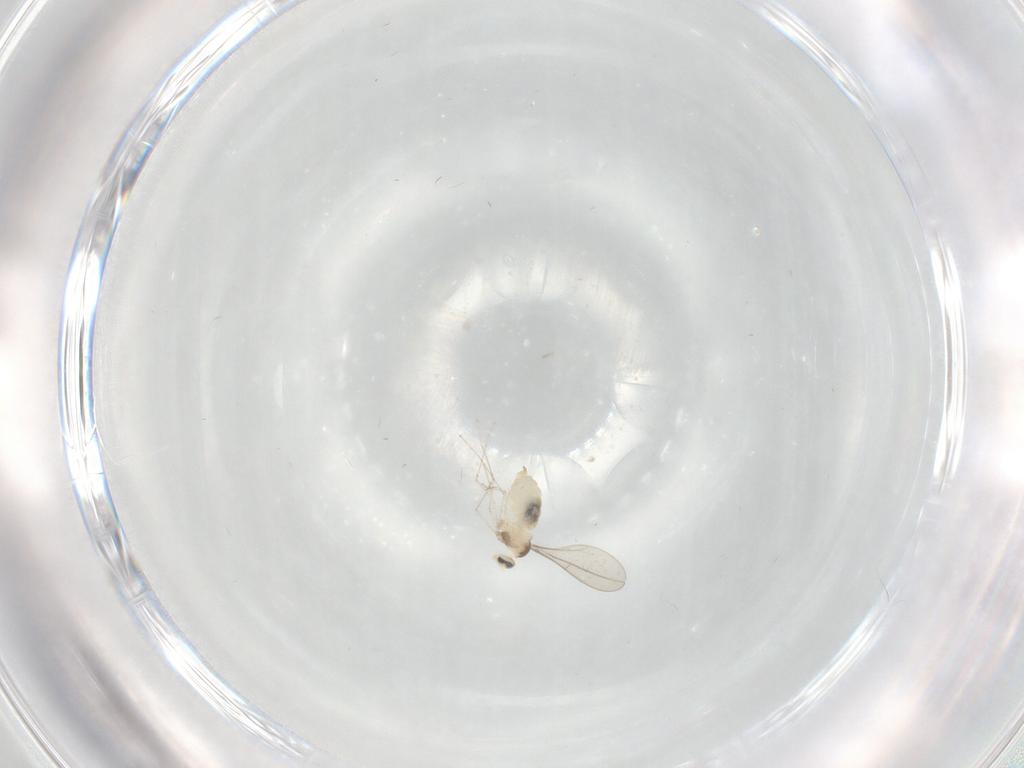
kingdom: Animalia
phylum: Arthropoda
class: Insecta
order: Diptera
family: Cecidomyiidae
